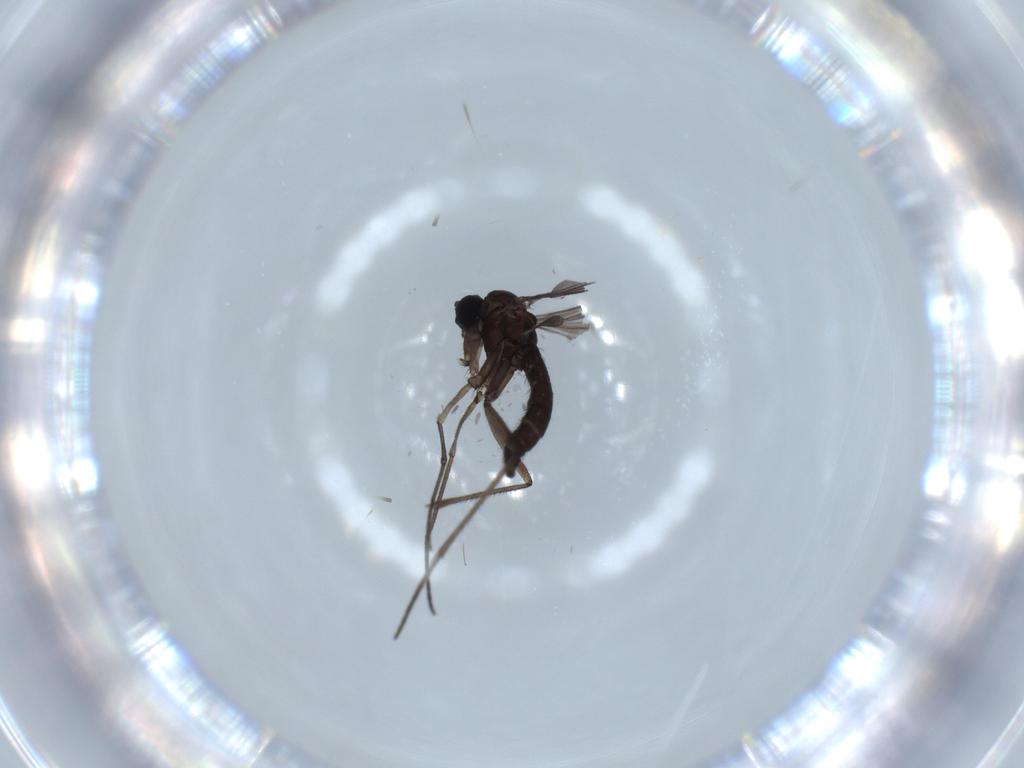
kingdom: Animalia
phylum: Arthropoda
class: Insecta
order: Diptera
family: Sciaridae
